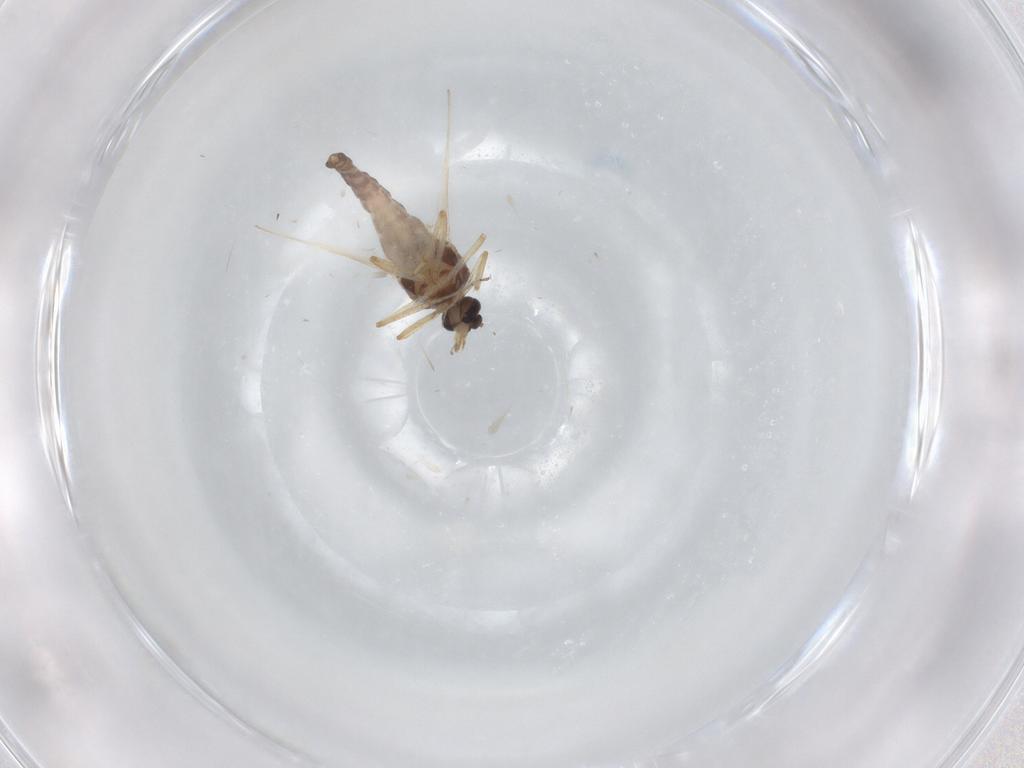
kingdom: Animalia
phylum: Arthropoda
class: Insecta
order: Diptera
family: Ceratopogonidae
